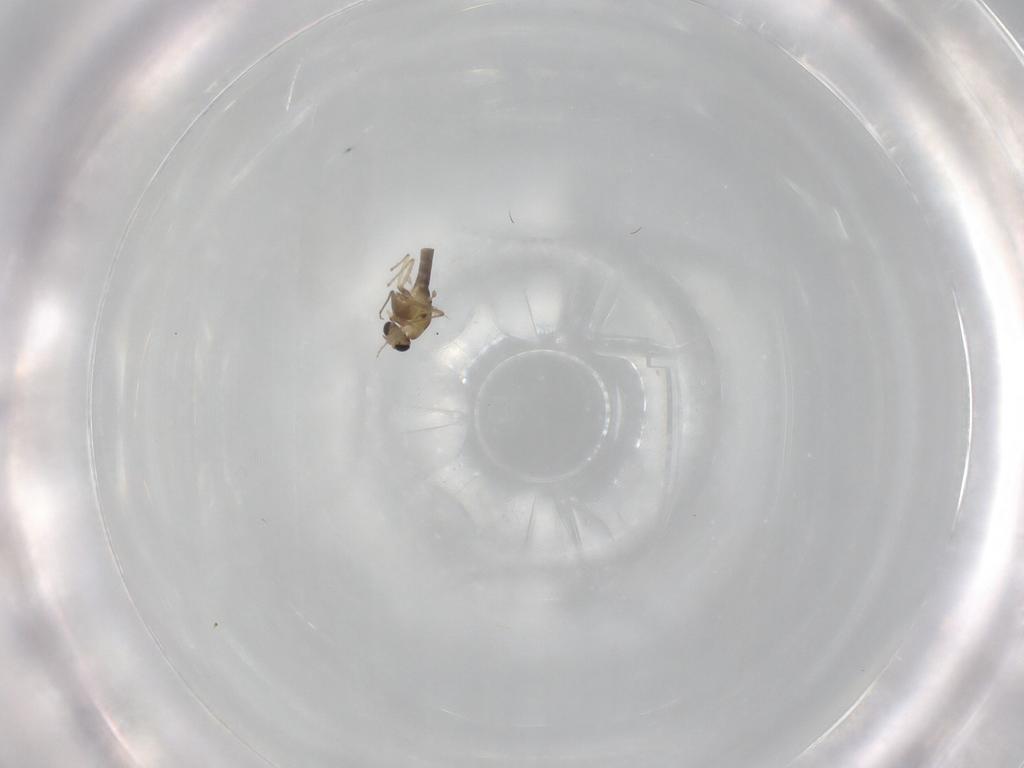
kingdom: Animalia
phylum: Arthropoda
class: Insecta
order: Diptera
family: Chironomidae
